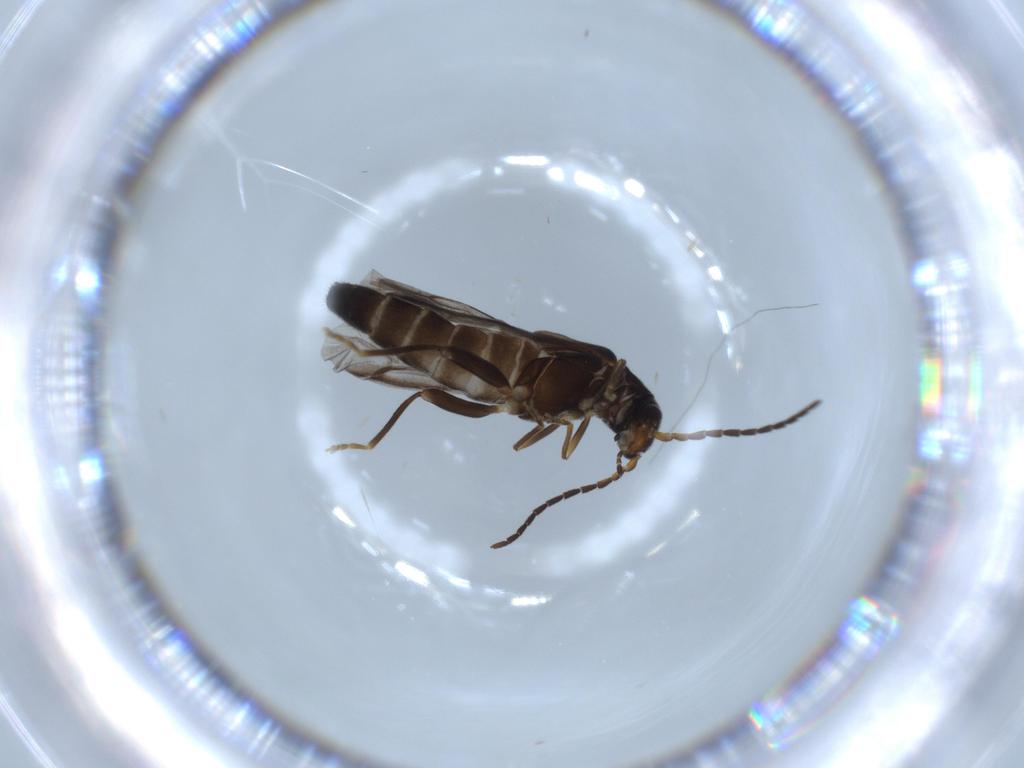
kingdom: Animalia
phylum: Arthropoda
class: Insecta
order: Coleoptera
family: Cantharidae
